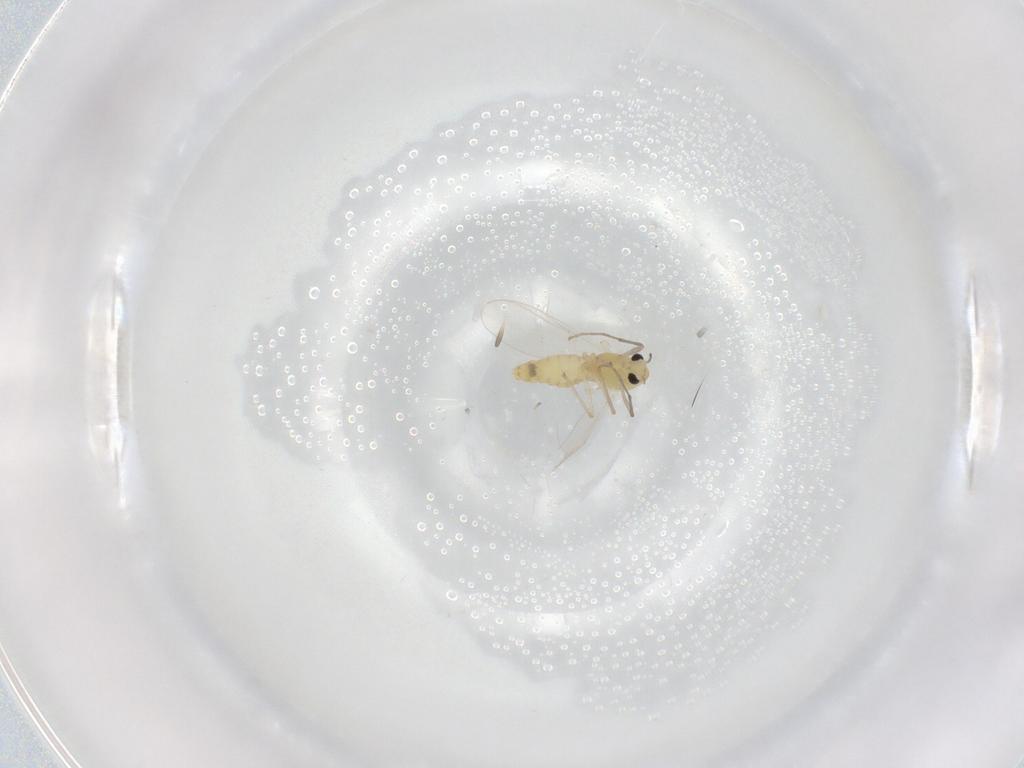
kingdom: Animalia
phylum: Arthropoda
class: Insecta
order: Diptera
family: Chironomidae
